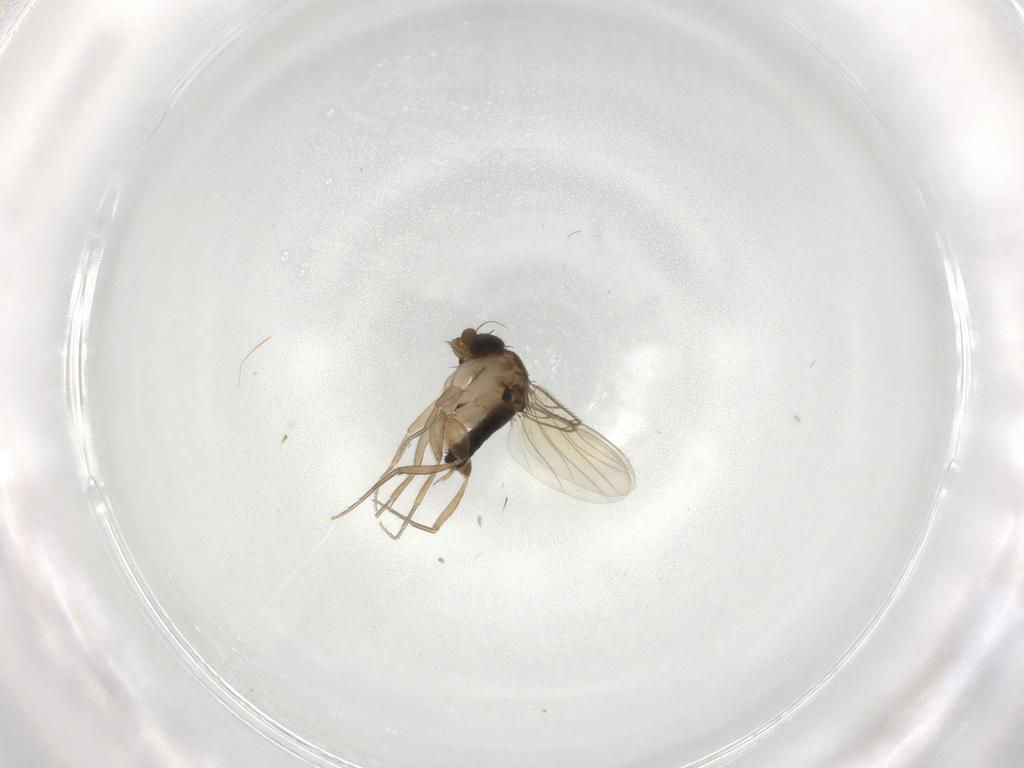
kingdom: Animalia
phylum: Arthropoda
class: Insecta
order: Diptera
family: Phoridae
